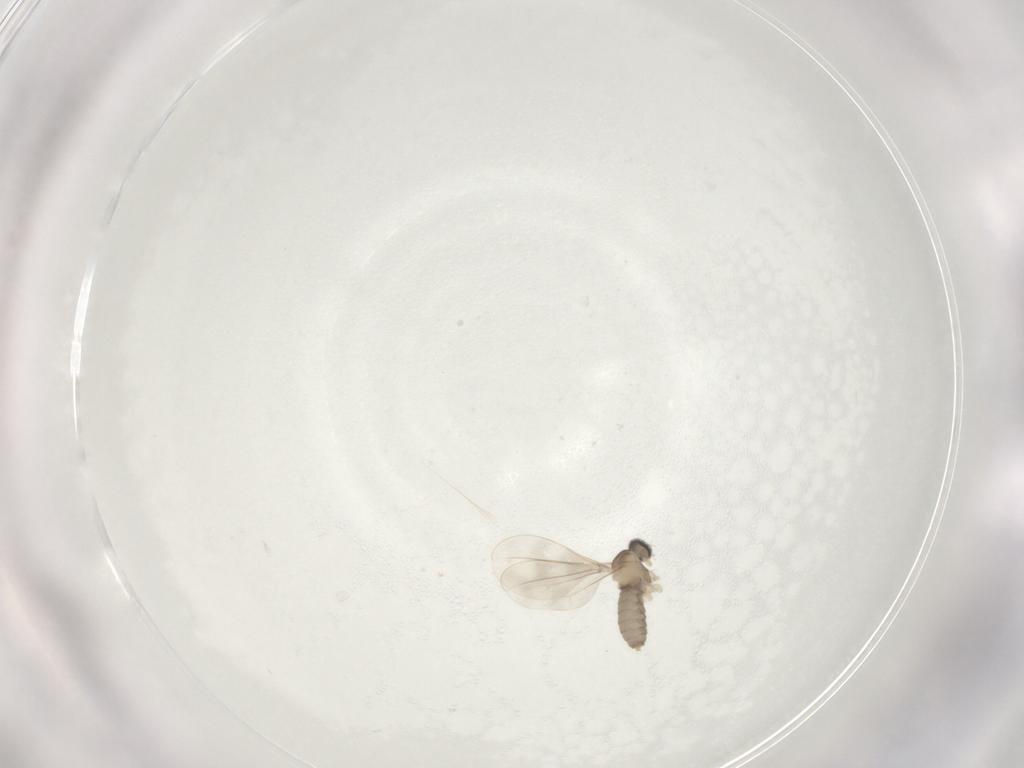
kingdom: Animalia
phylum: Arthropoda
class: Insecta
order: Diptera
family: Cecidomyiidae
